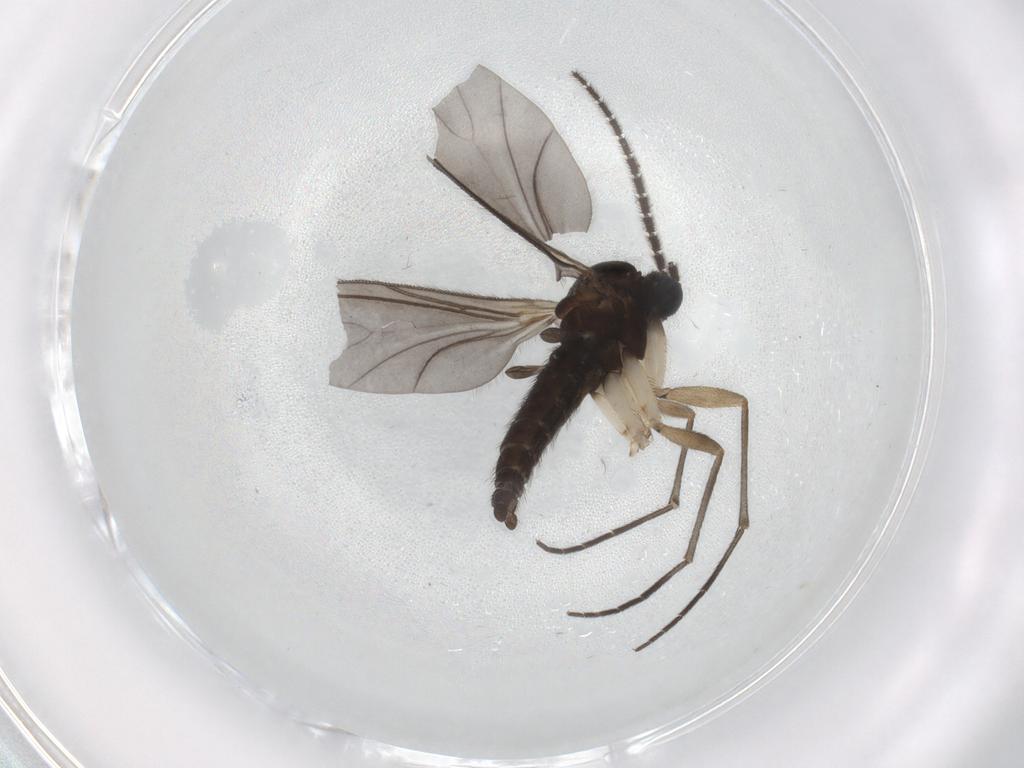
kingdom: Animalia
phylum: Arthropoda
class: Insecta
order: Diptera
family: Sciaridae
